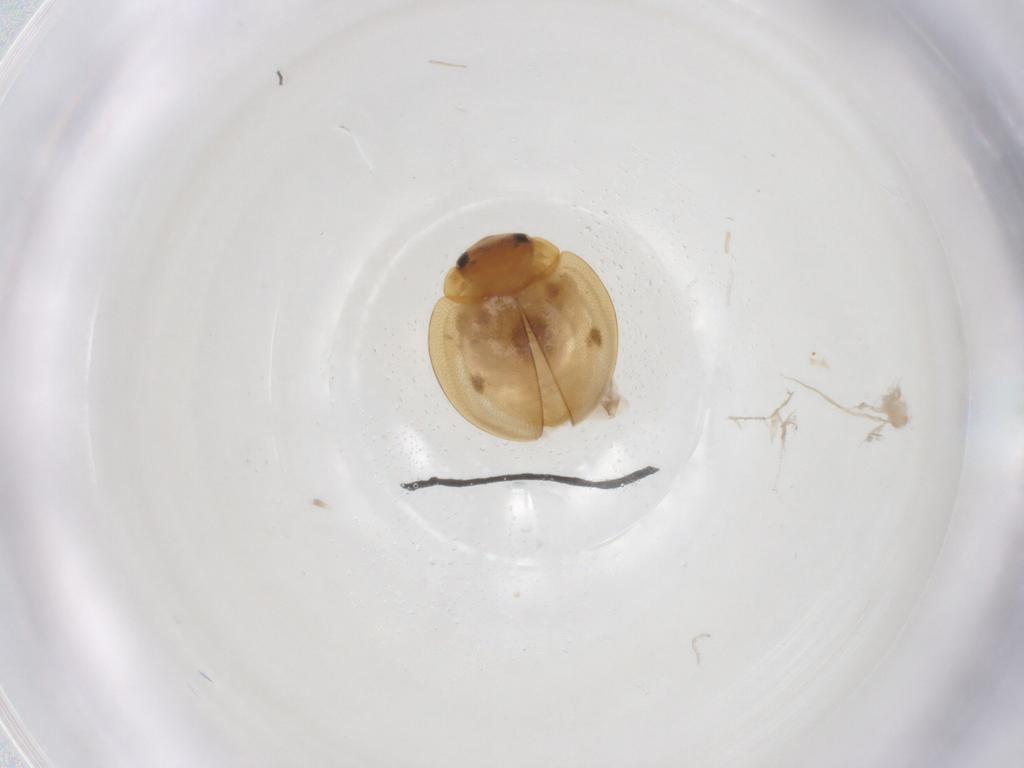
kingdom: Animalia
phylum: Arthropoda
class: Insecta
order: Coleoptera
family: Coccinellidae
